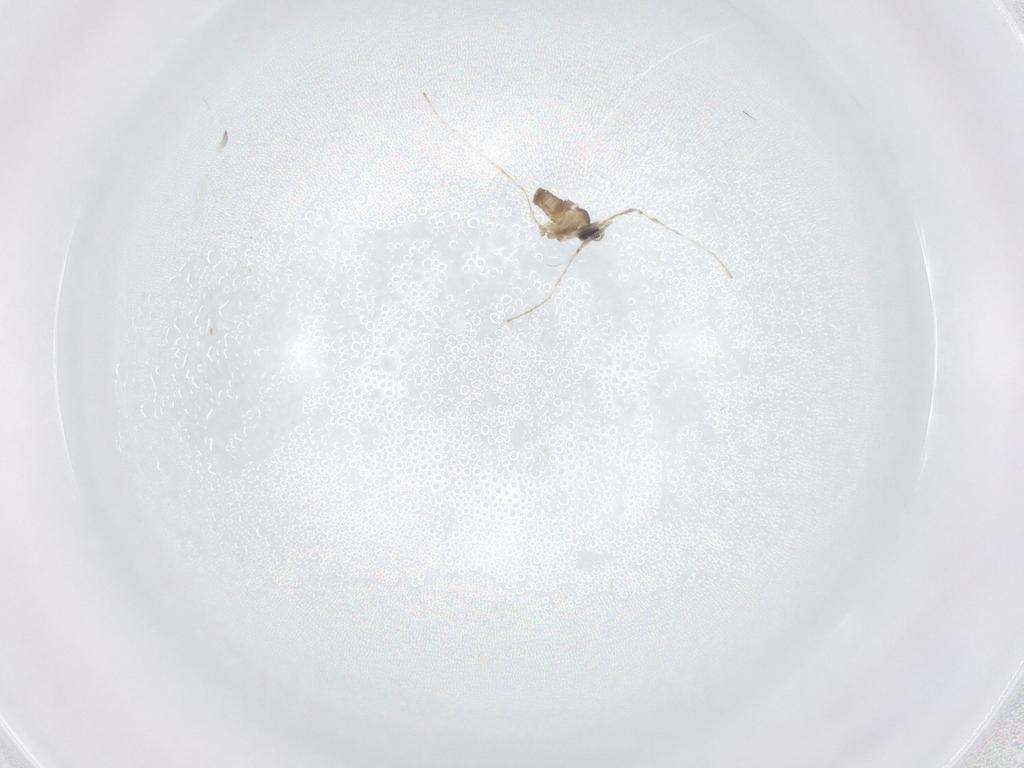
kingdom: Animalia
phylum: Arthropoda
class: Insecta
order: Diptera
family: Cecidomyiidae
